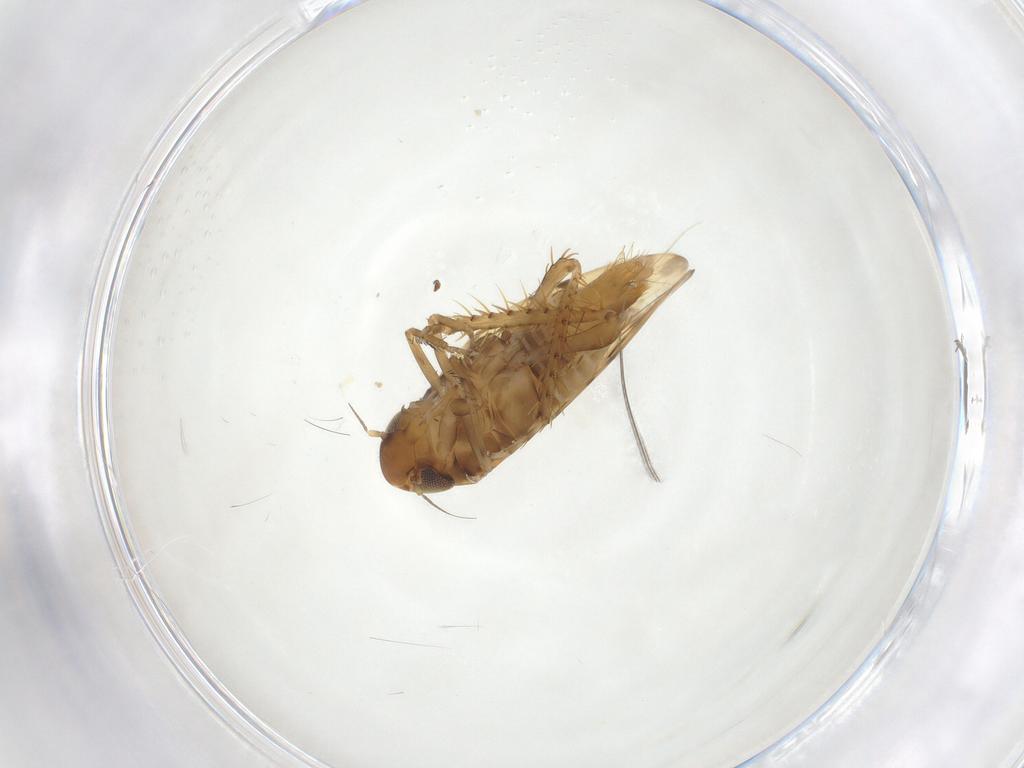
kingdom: Animalia
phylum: Arthropoda
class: Insecta
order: Hemiptera
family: Cicadellidae
